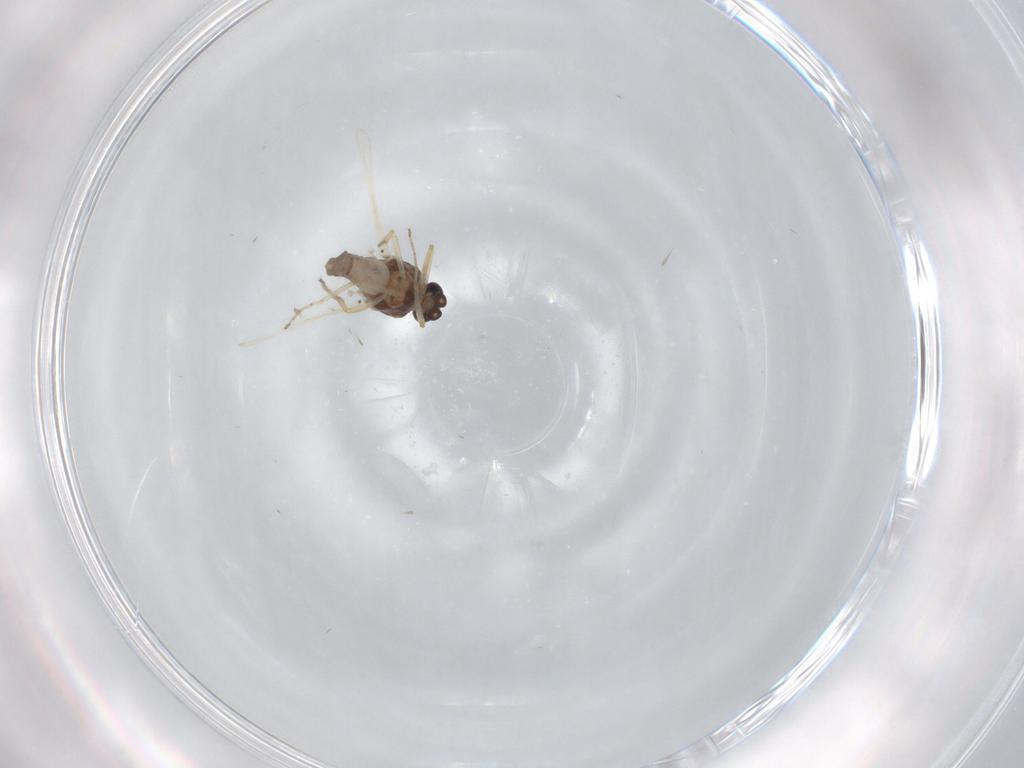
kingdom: Animalia
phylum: Arthropoda
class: Insecta
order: Diptera
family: Ceratopogonidae
